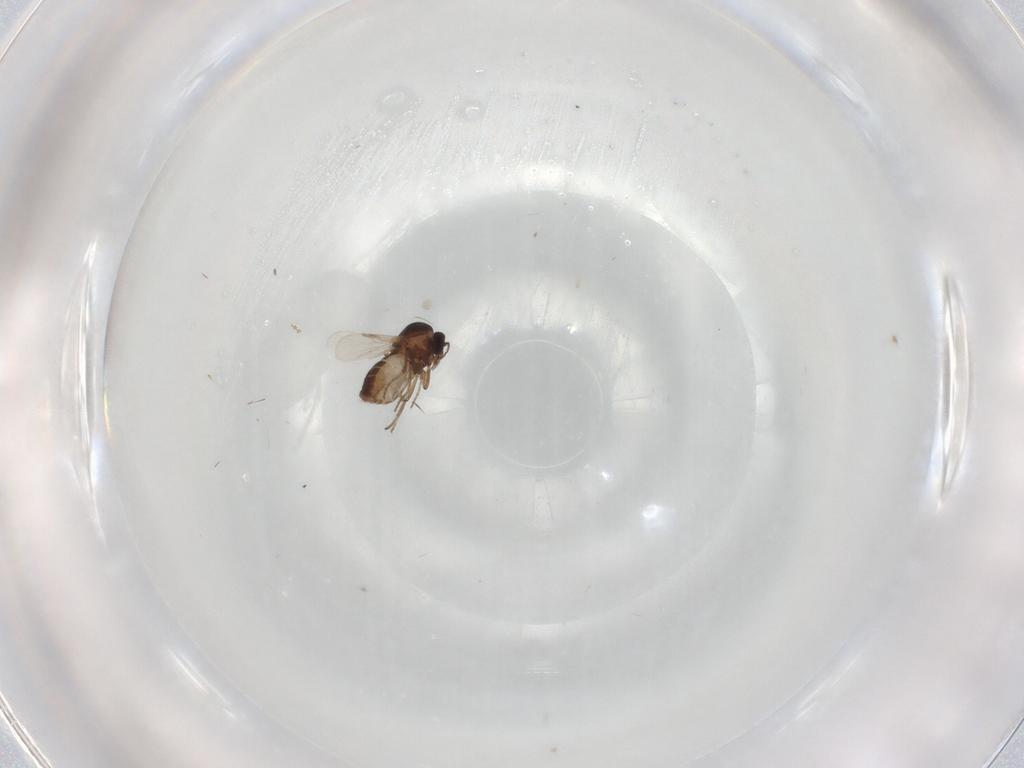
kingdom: Animalia
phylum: Arthropoda
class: Insecta
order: Diptera
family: Ceratopogonidae
